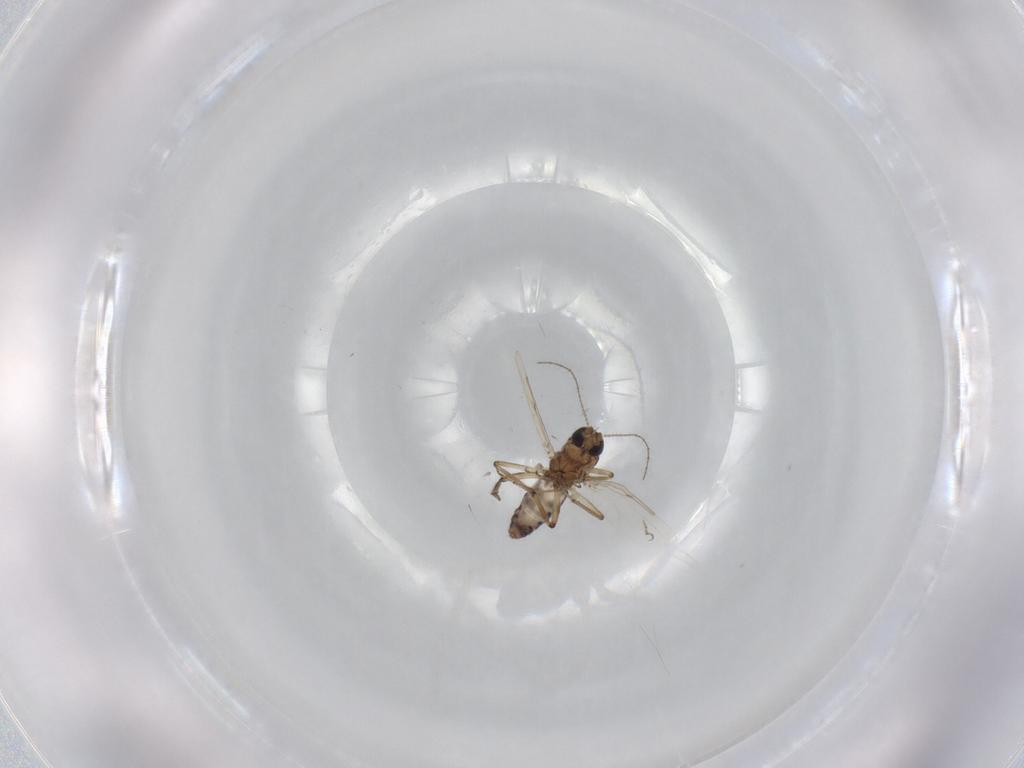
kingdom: Animalia
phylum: Arthropoda
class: Insecta
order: Diptera
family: Ceratopogonidae
